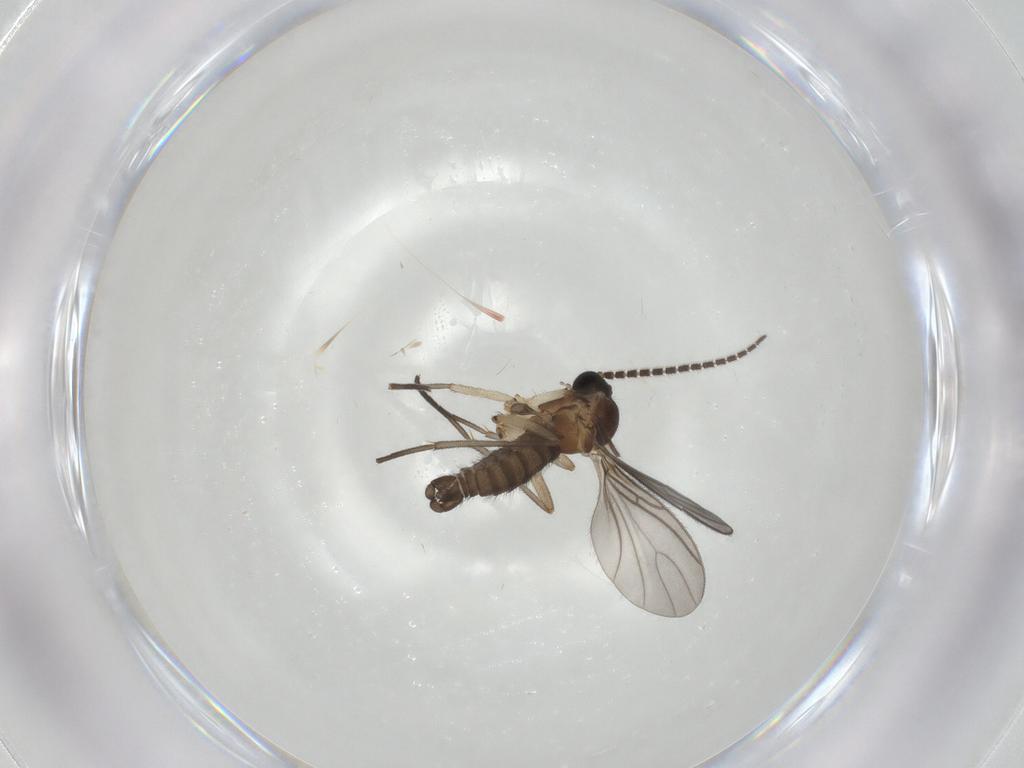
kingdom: Animalia
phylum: Arthropoda
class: Insecta
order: Diptera
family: Sciaridae
